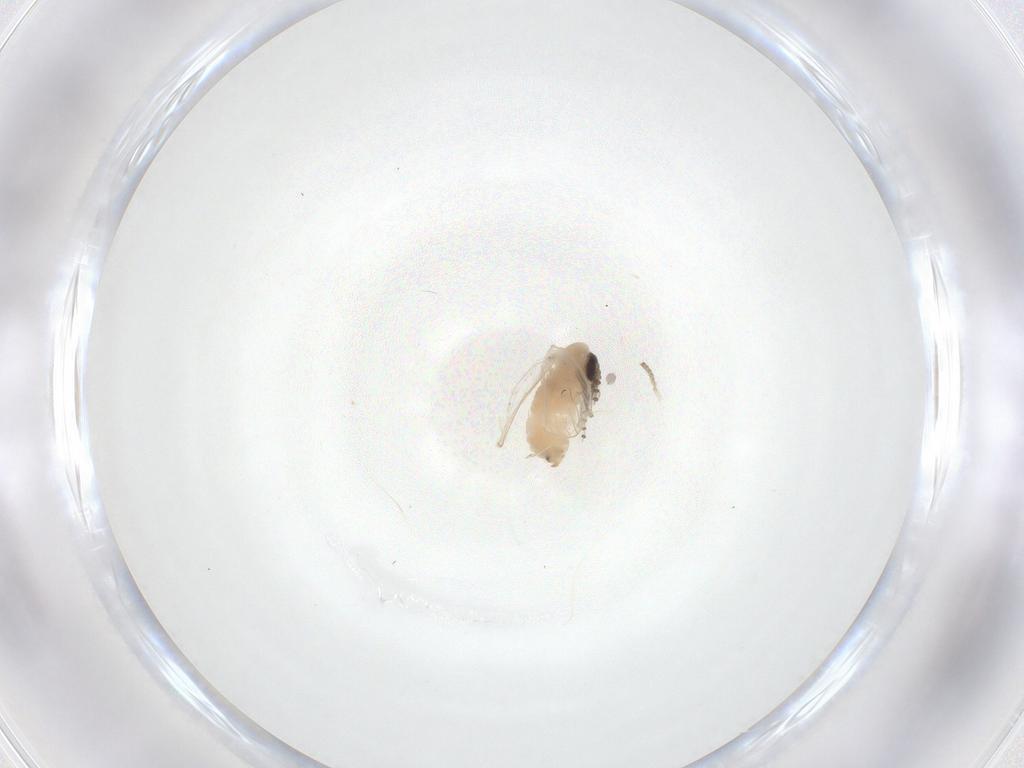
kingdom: Animalia
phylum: Arthropoda
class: Insecta
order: Diptera
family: Psychodidae
